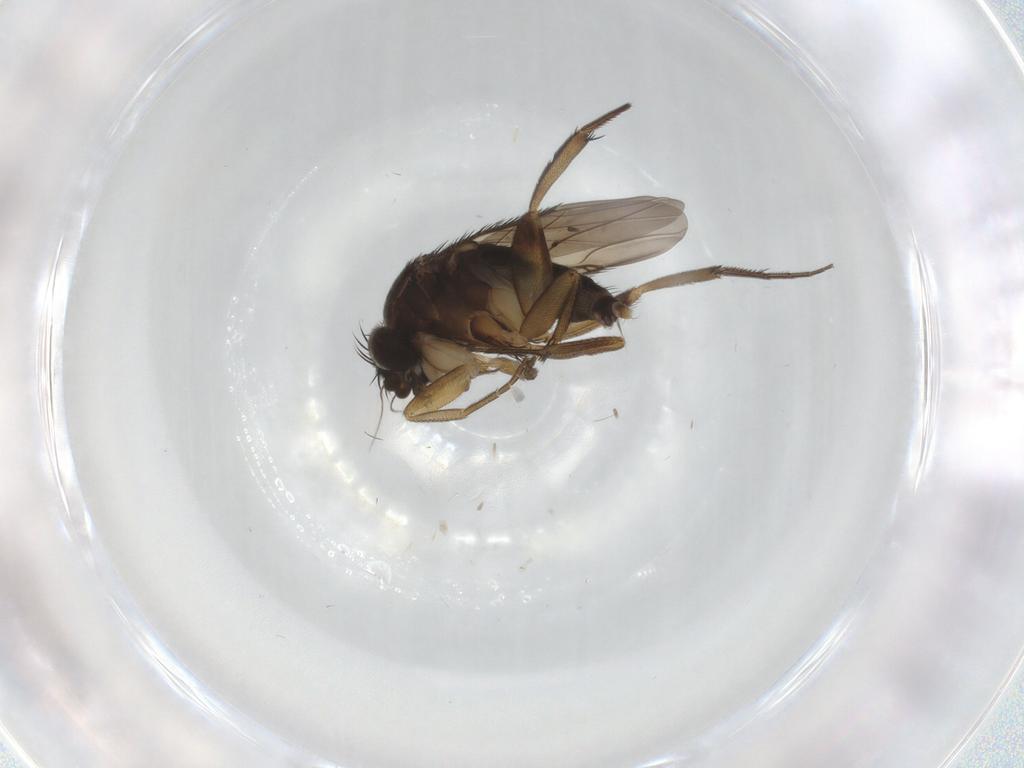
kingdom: Animalia
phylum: Arthropoda
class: Insecta
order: Diptera
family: Phoridae
